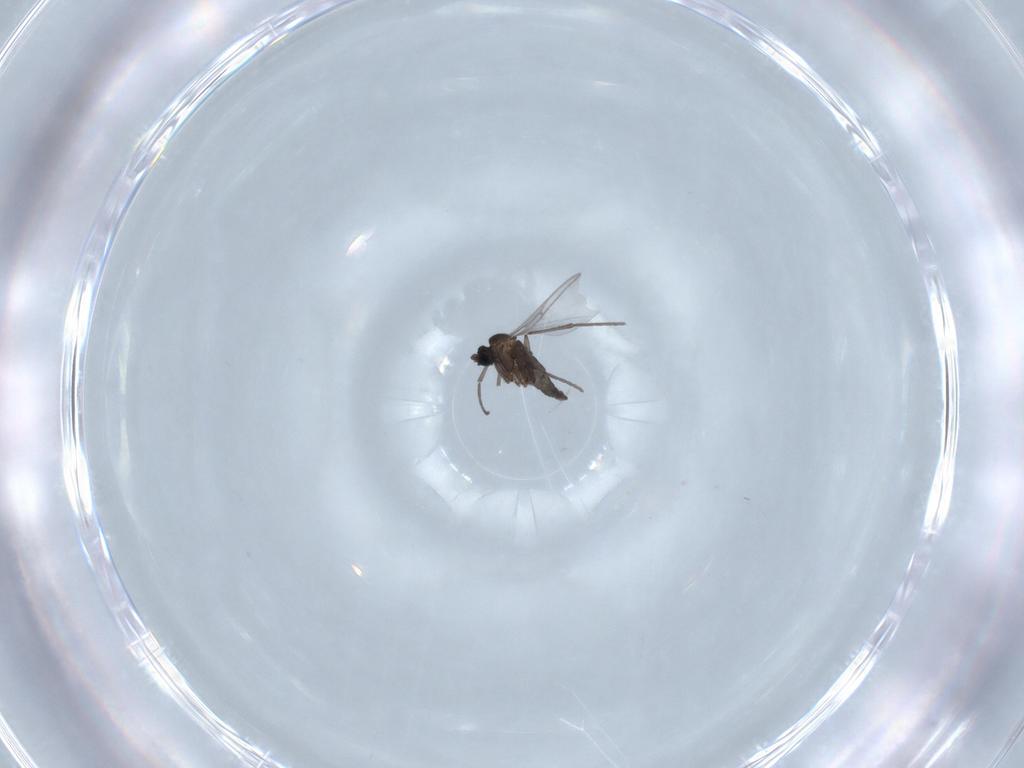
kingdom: Animalia
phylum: Arthropoda
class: Insecta
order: Diptera
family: Sciaridae
